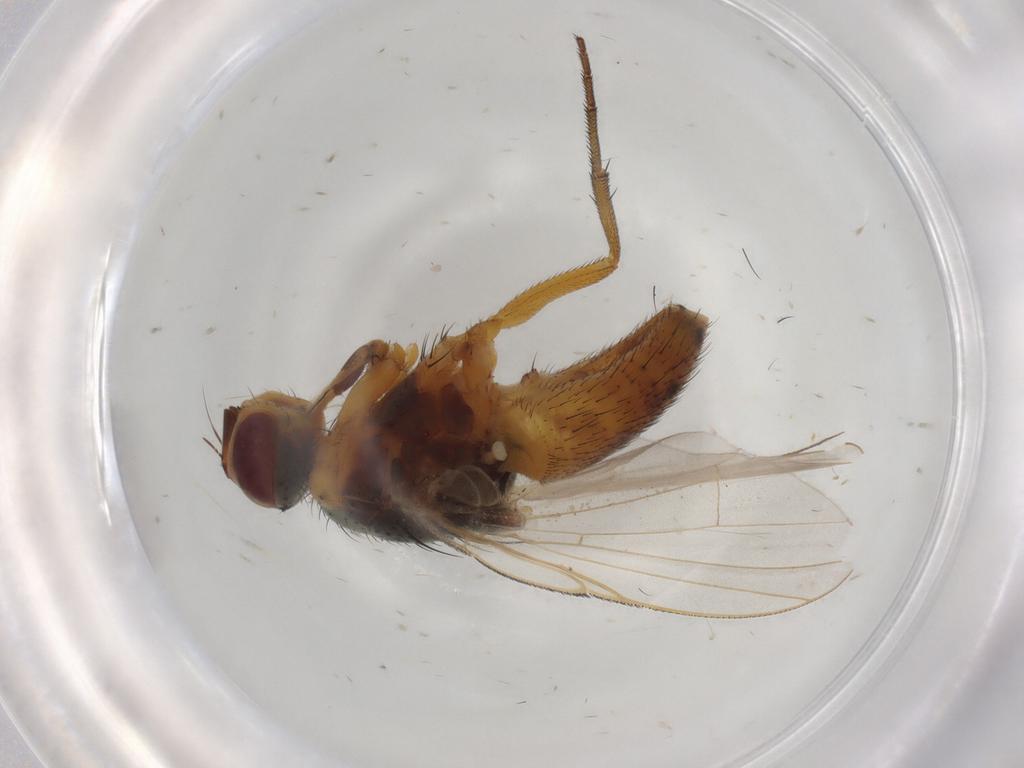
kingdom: Animalia
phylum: Arthropoda
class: Insecta
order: Diptera
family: Muscidae
